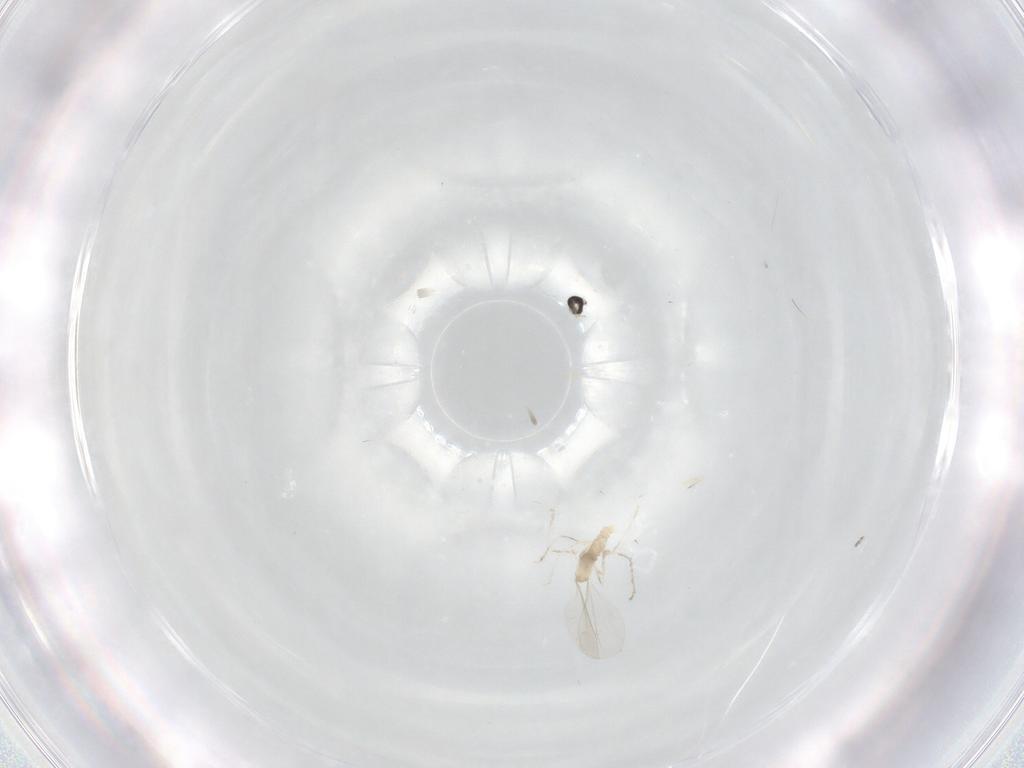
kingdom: Animalia
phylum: Arthropoda
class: Insecta
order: Diptera
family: Cecidomyiidae
